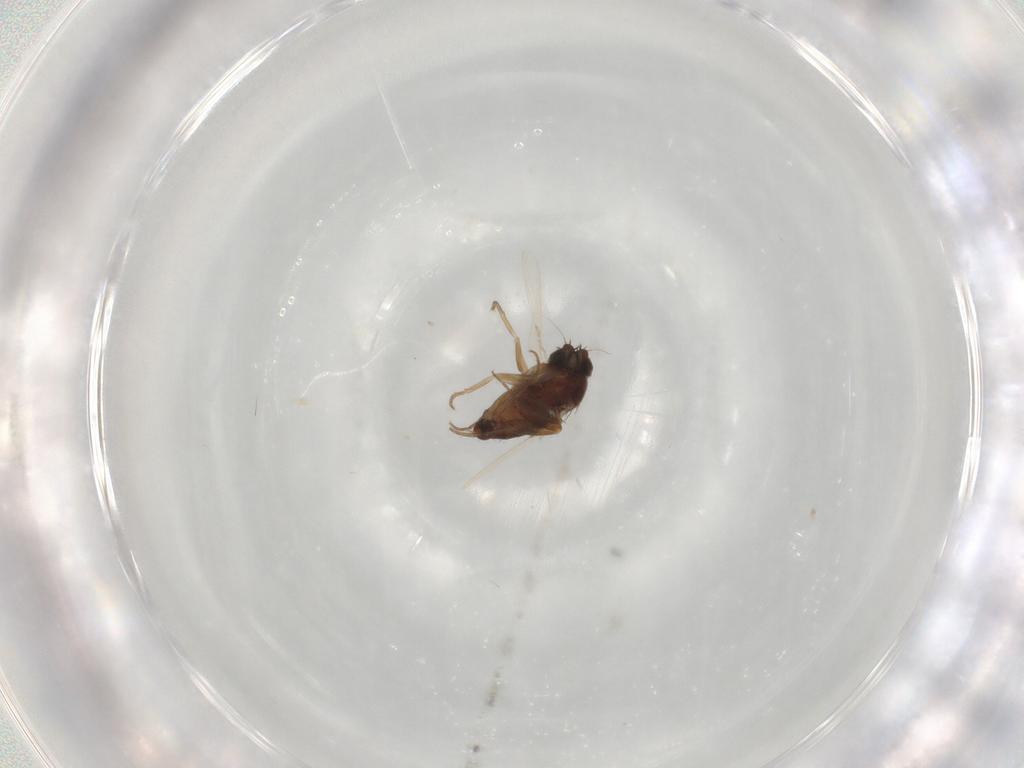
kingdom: Animalia
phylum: Arthropoda
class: Insecta
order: Diptera
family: Phoridae
